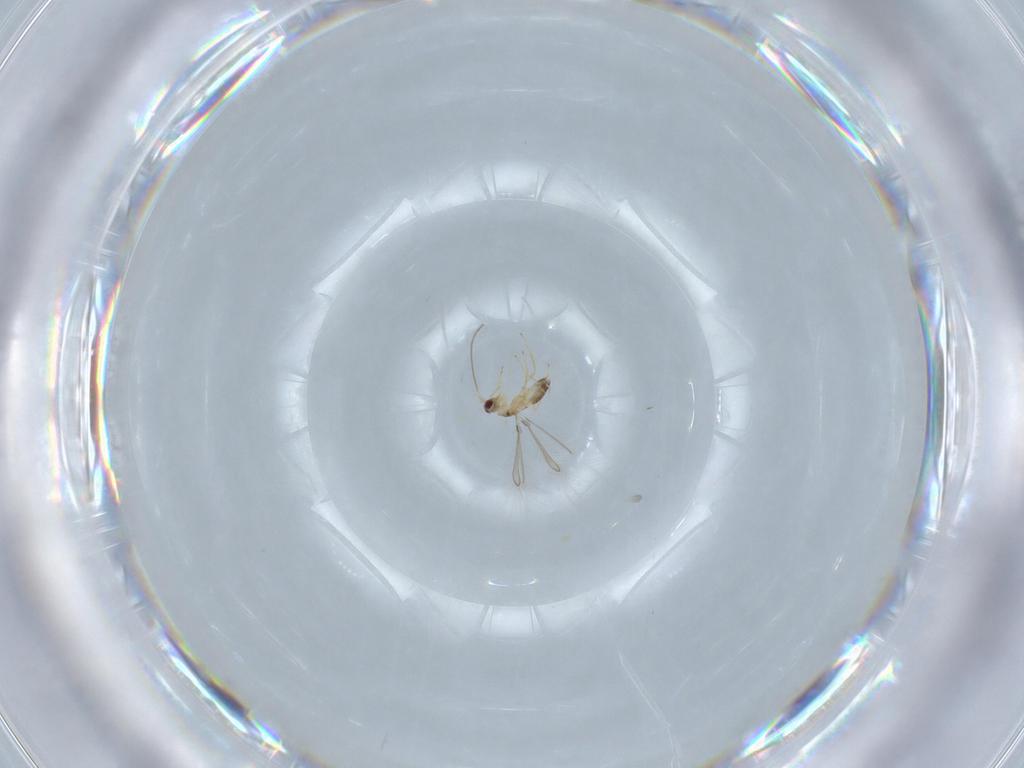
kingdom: Animalia
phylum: Arthropoda
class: Insecta
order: Hymenoptera
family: Mymaridae
